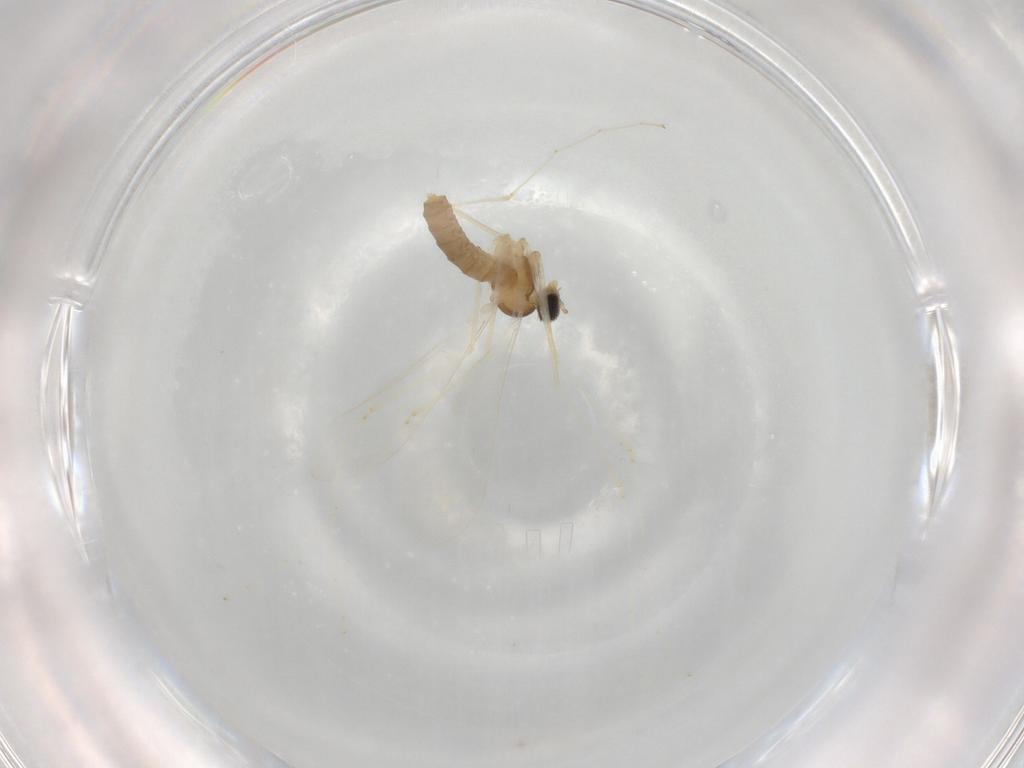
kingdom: Animalia
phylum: Arthropoda
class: Insecta
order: Diptera
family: Cecidomyiidae
